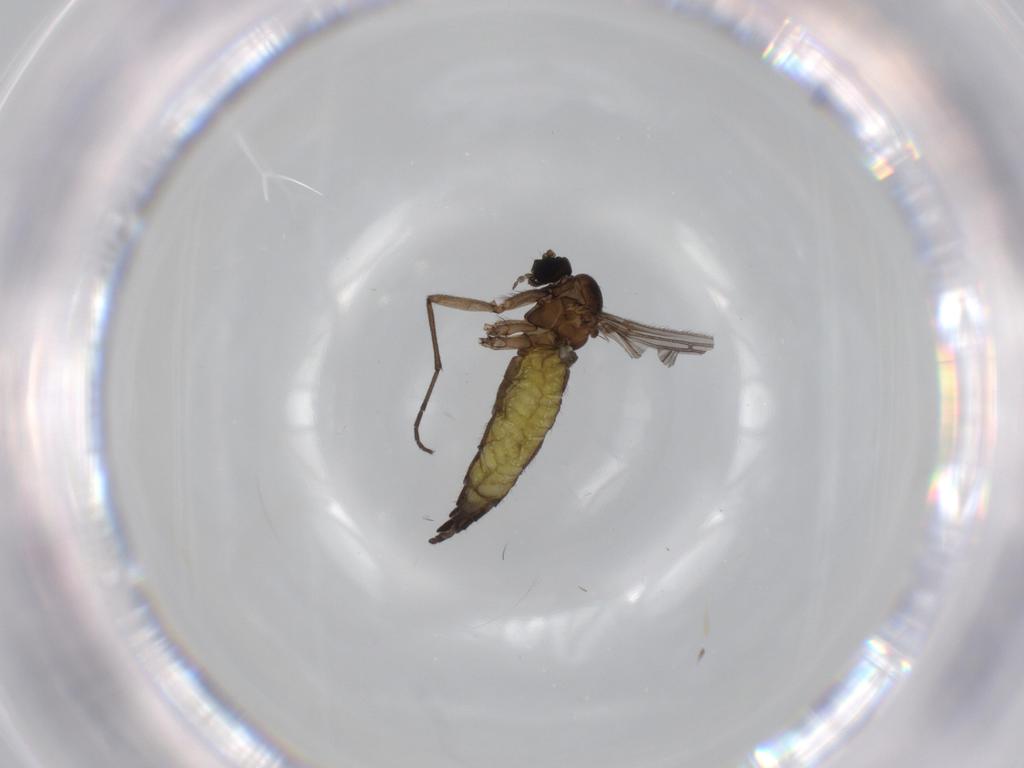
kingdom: Animalia
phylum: Arthropoda
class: Insecta
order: Diptera
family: Sciaridae
